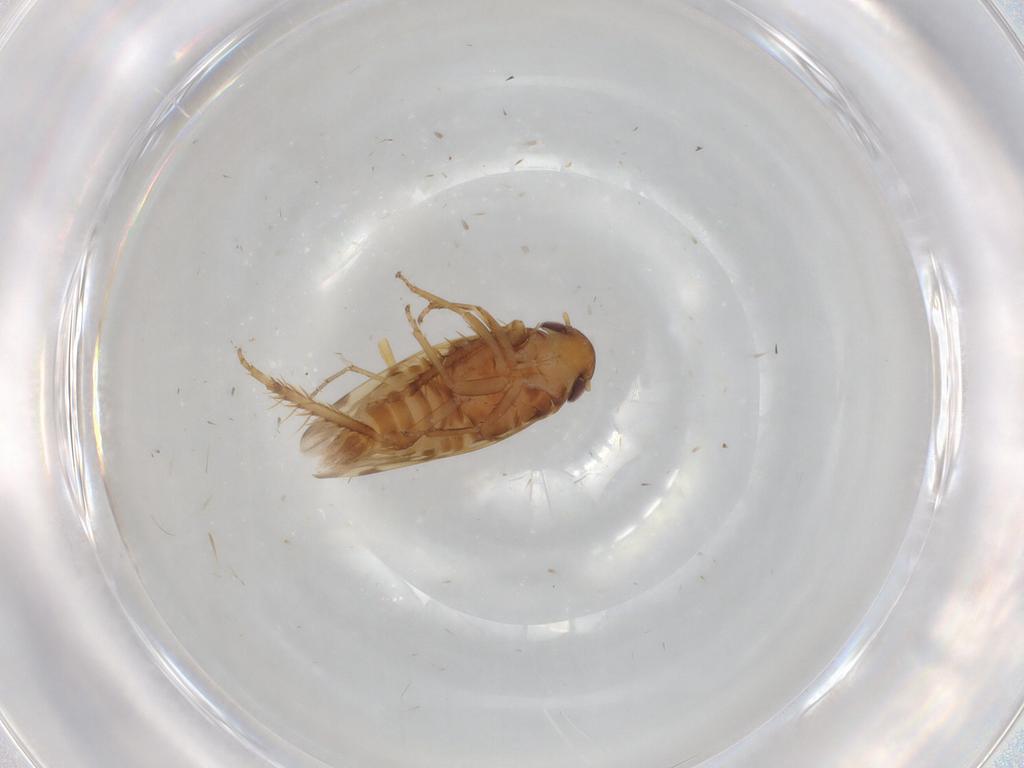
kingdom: Animalia
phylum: Arthropoda
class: Insecta
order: Hemiptera
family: Cicadellidae
